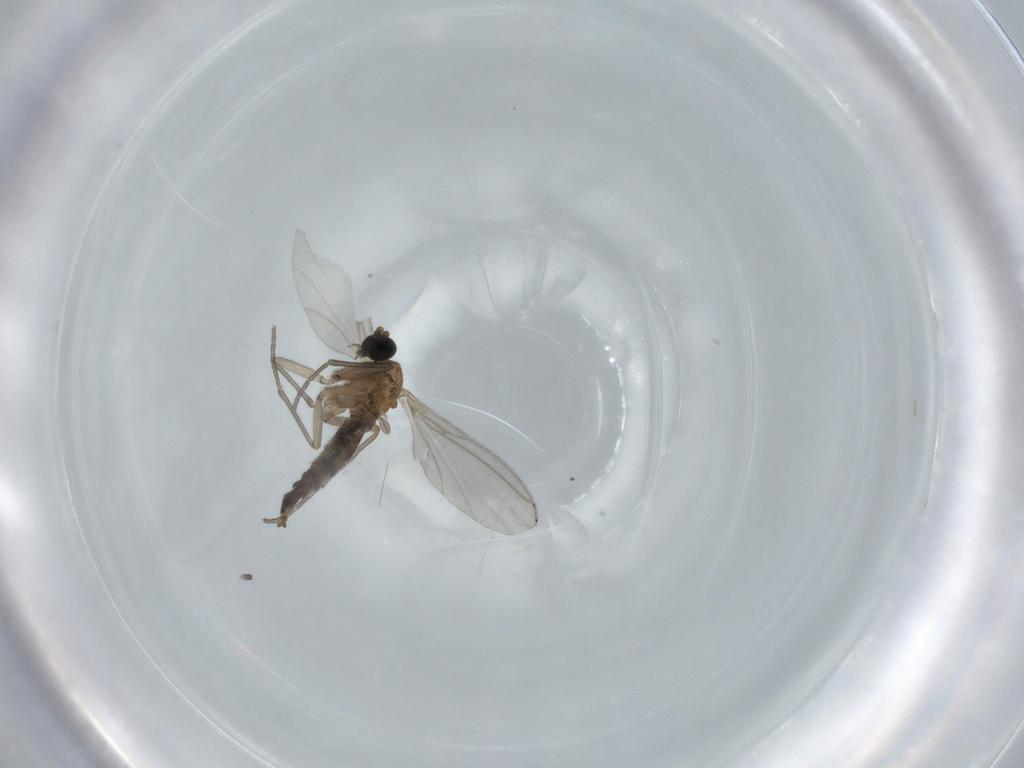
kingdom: Animalia
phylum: Arthropoda
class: Insecta
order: Diptera
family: Sciaridae
